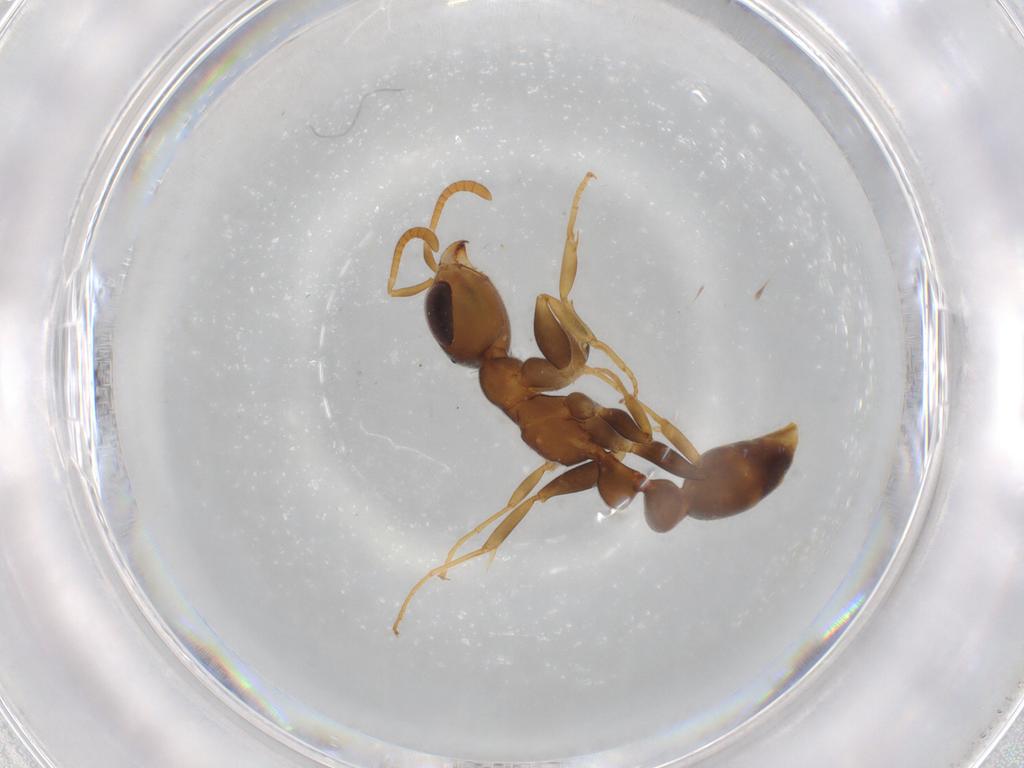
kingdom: Animalia
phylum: Arthropoda
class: Insecta
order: Hymenoptera
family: Formicidae
